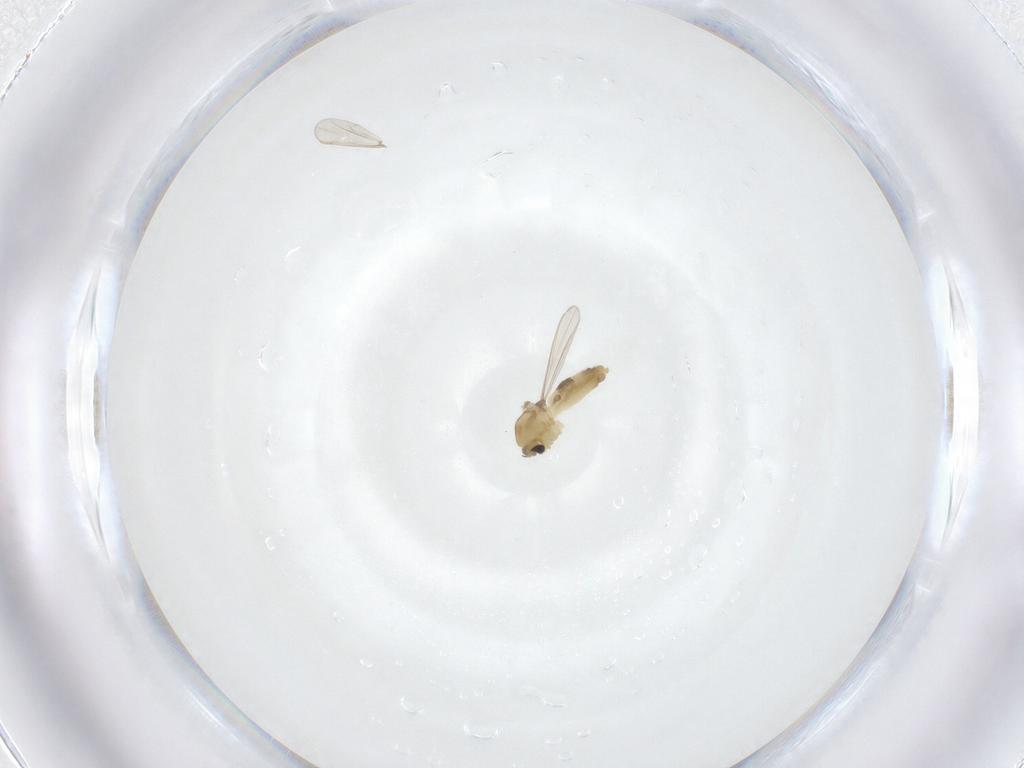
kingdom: Animalia
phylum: Arthropoda
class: Insecta
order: Diptera
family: Chironomidae
